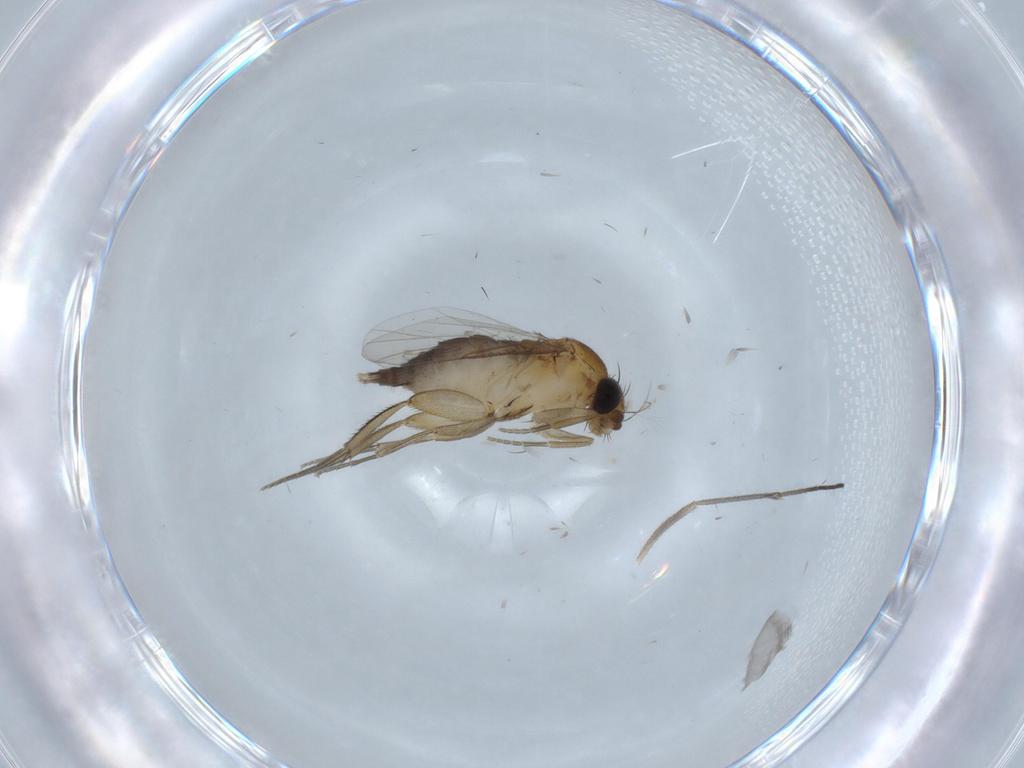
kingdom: Animalia
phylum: Arthropoda
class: Insecta
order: Diptera
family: Phoridae
